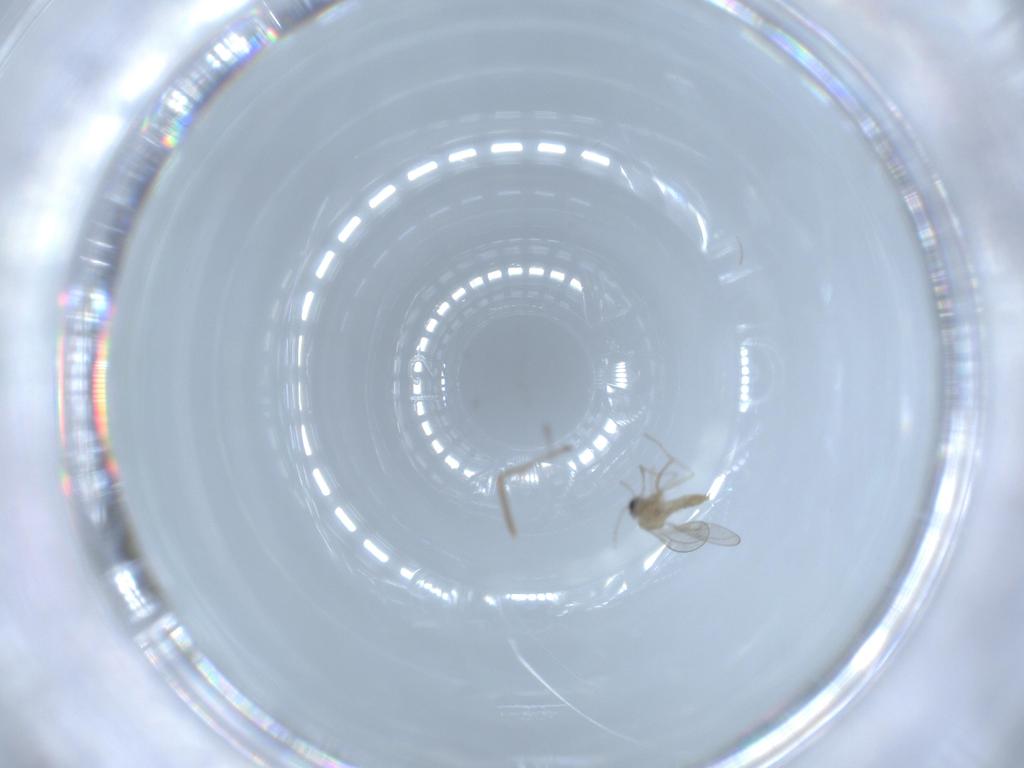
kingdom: Animalia
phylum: Arthropoda
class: Insecta
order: Diptera
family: Cecidomyiidae
